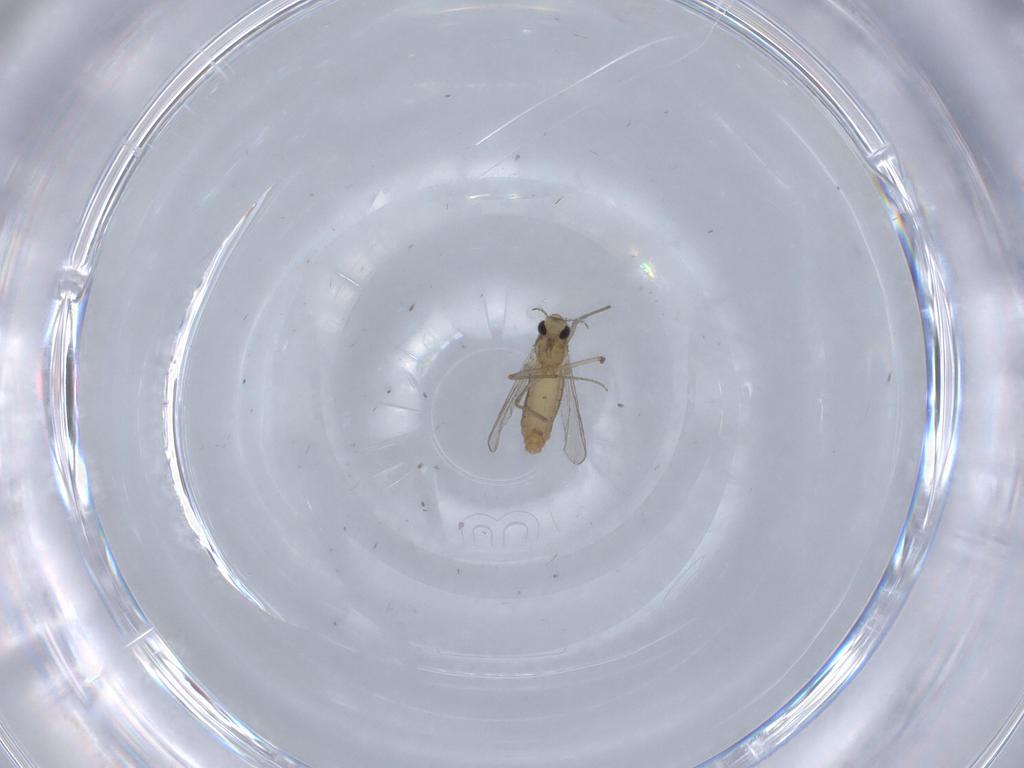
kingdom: Animalia
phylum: Arthropoda
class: Insecta
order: Diptera
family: Chironomidae
